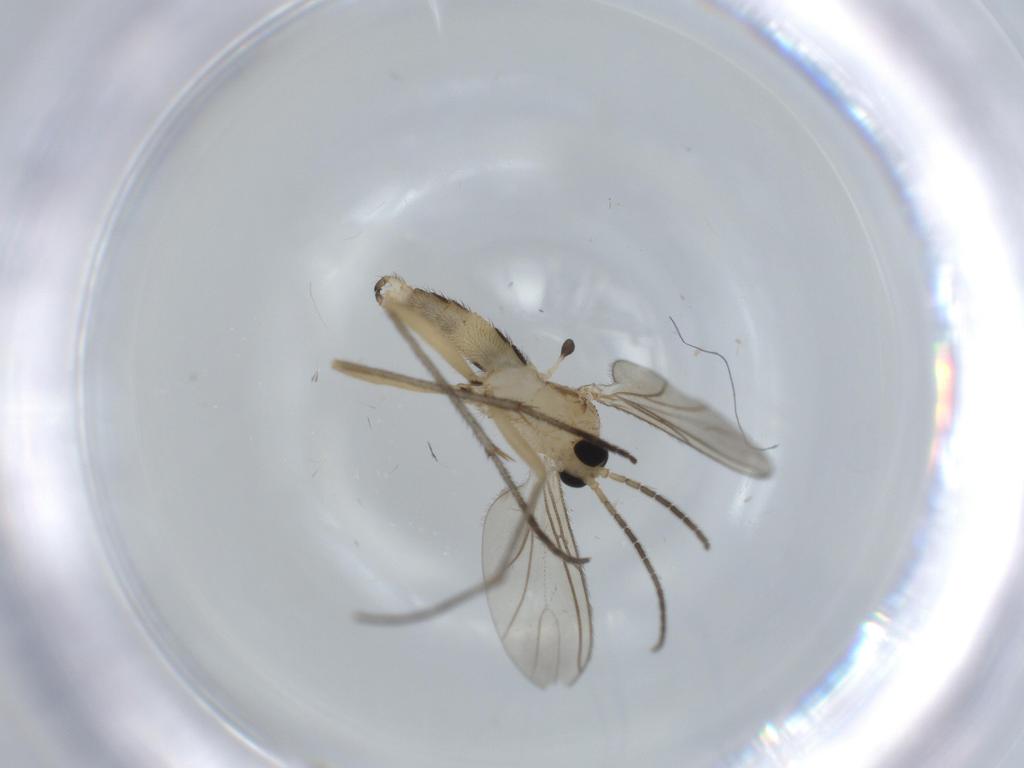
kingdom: Animalia
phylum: Arthropoda
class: Insecta
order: Diptera
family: Sciaridae
